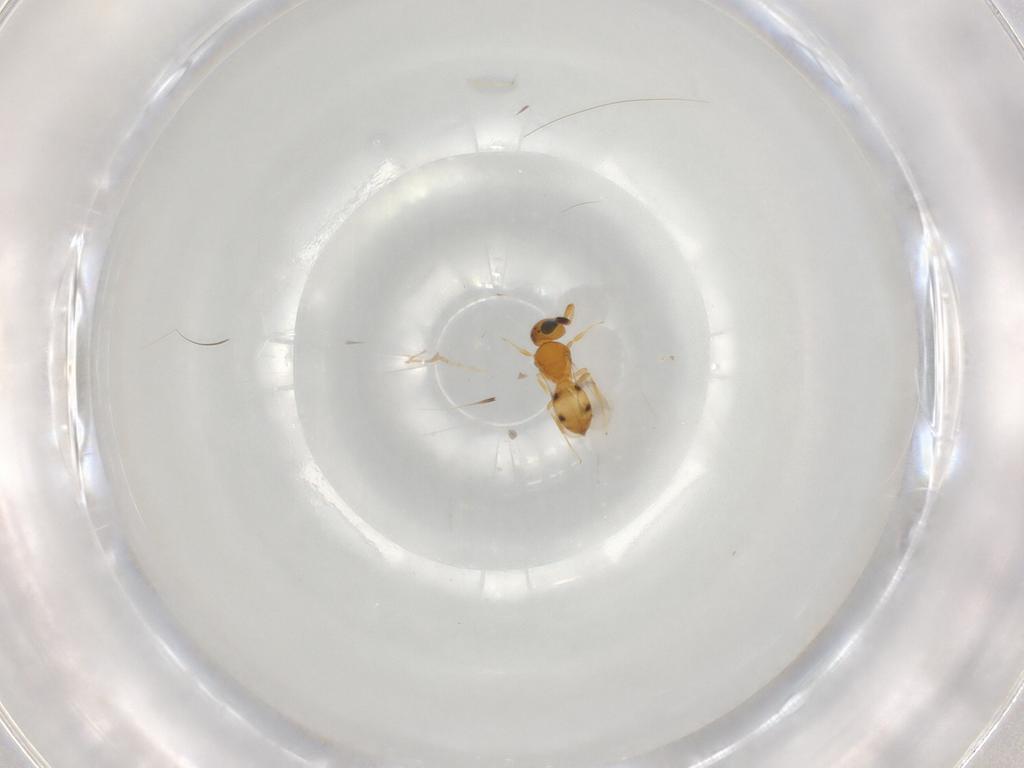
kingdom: Animalia
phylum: Arthropoda
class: Insecta
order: Hymenoptera
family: Scelionidae
